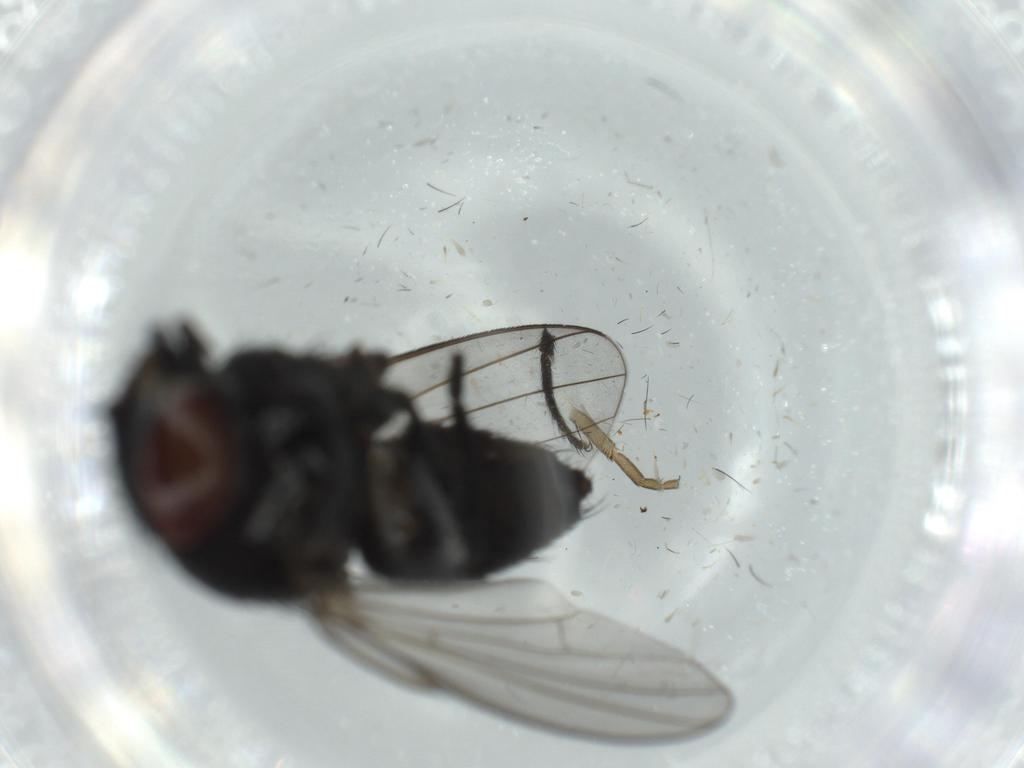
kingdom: Animalia
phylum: Arthropoda
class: Insecta
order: Diptera
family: Milichiidae
